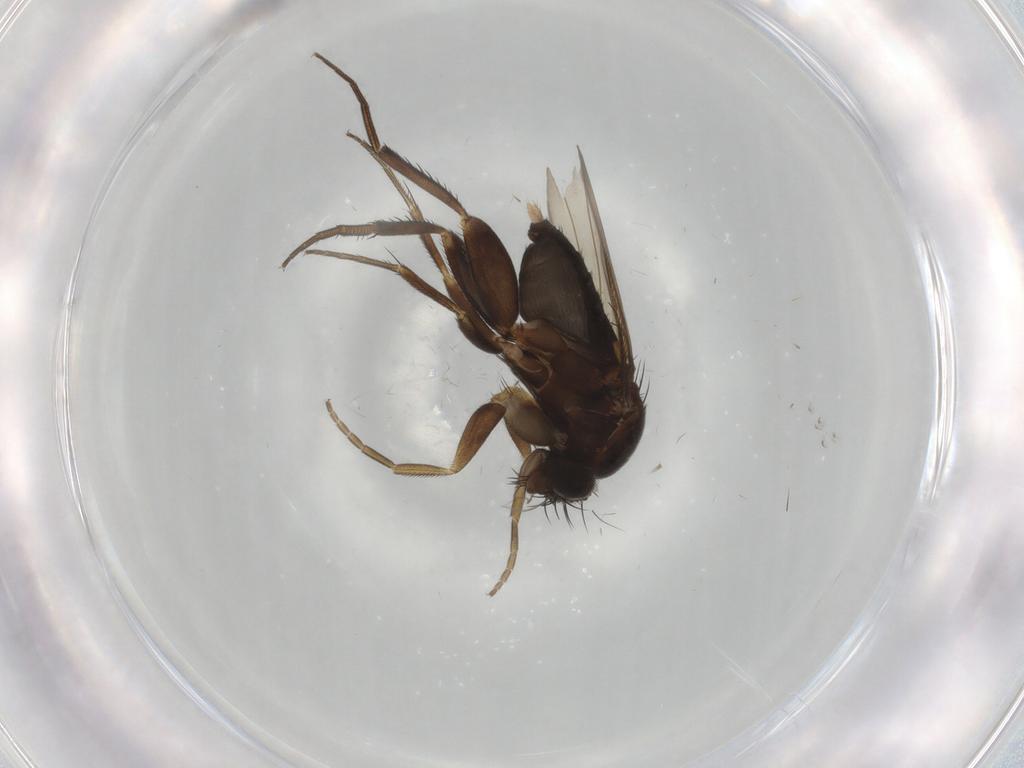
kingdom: Animalia
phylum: Arthropoda
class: Insecta
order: Diptera
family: Phoridae
